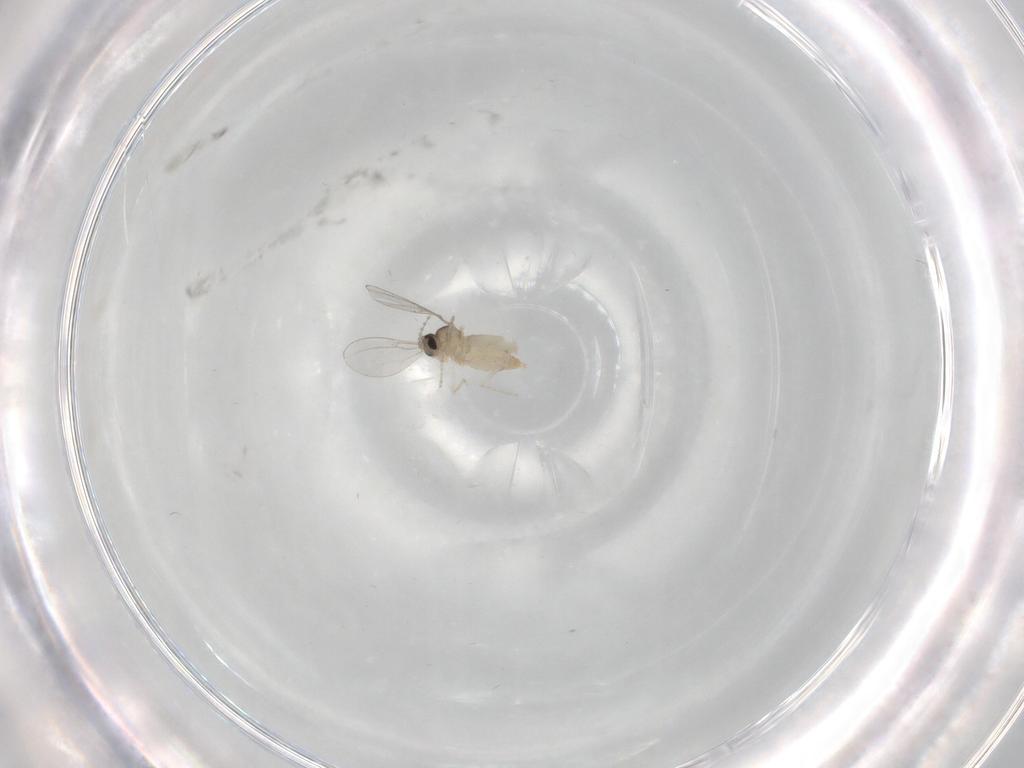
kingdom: Animalia
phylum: Arthropoda
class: Insecta
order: Diptera
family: Cecidomyiidae
